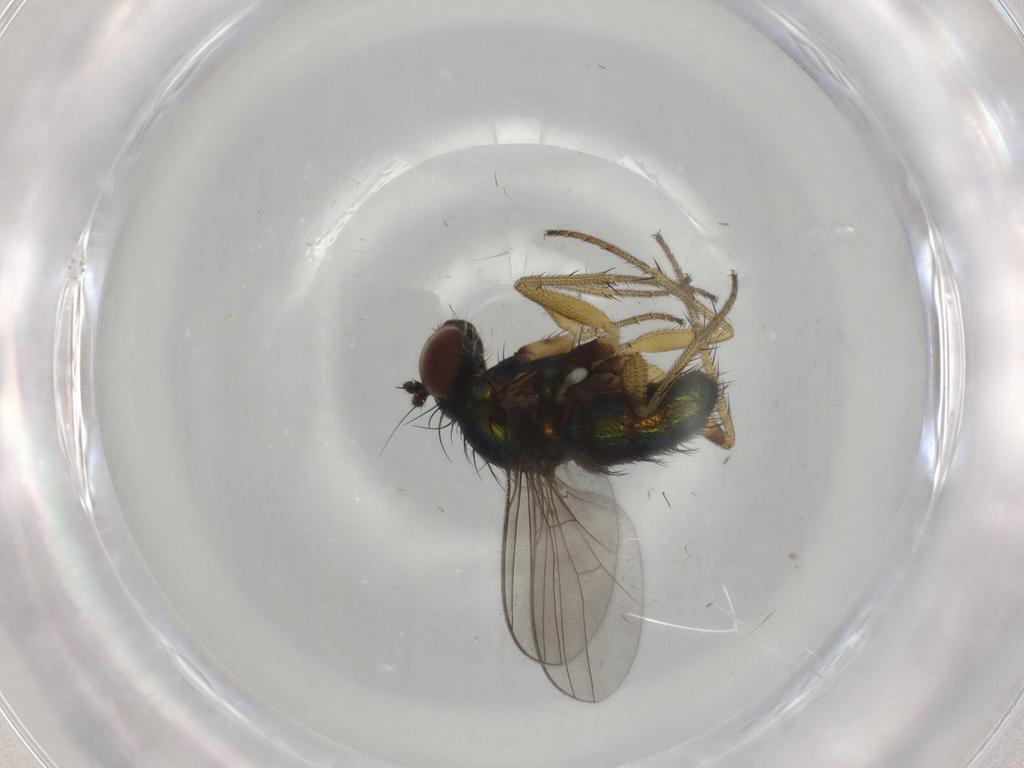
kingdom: Animalia
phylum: Arthropoda
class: Insecta
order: Diptera
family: Dolichopodidae
